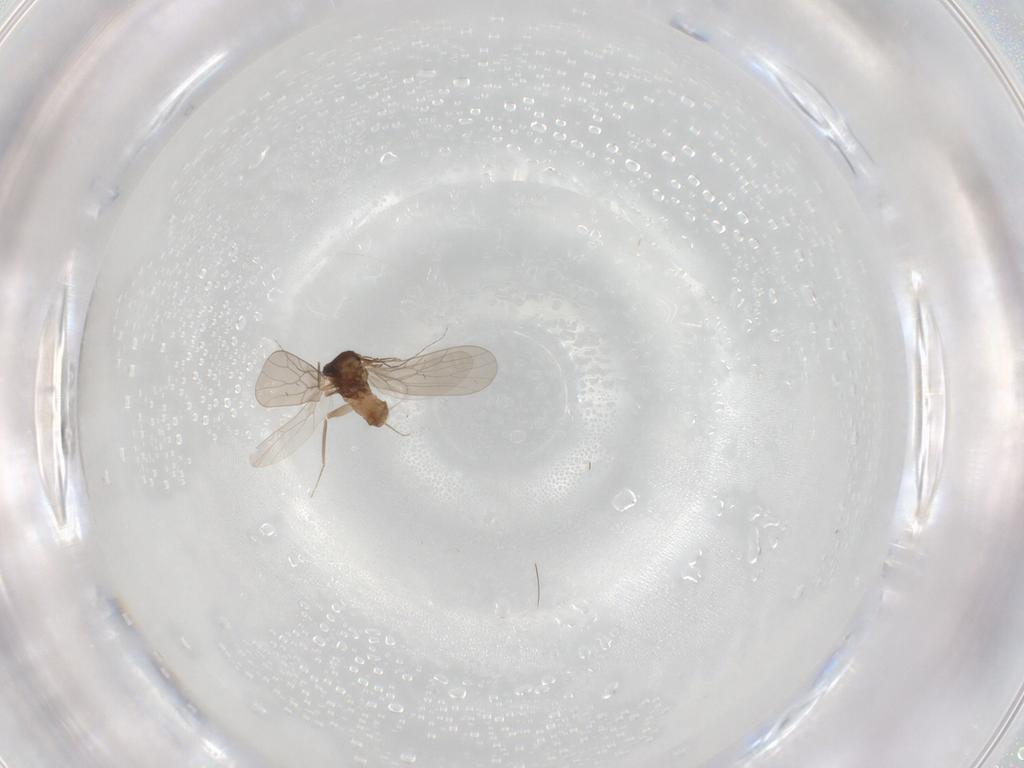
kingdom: Animalia
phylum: Arthropoda
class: Insecta
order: Psocodea
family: Lepidopsocidae
